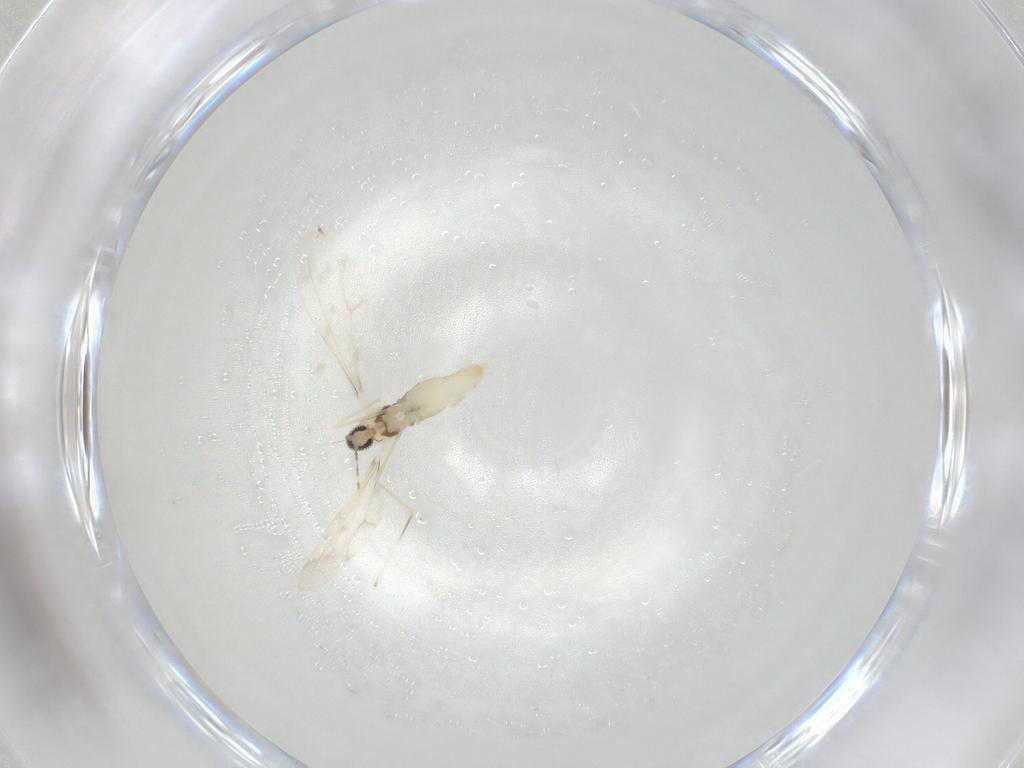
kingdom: Animalia
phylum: Arthropoda
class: Insecta
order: Diptera
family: Cecidomyiidae
